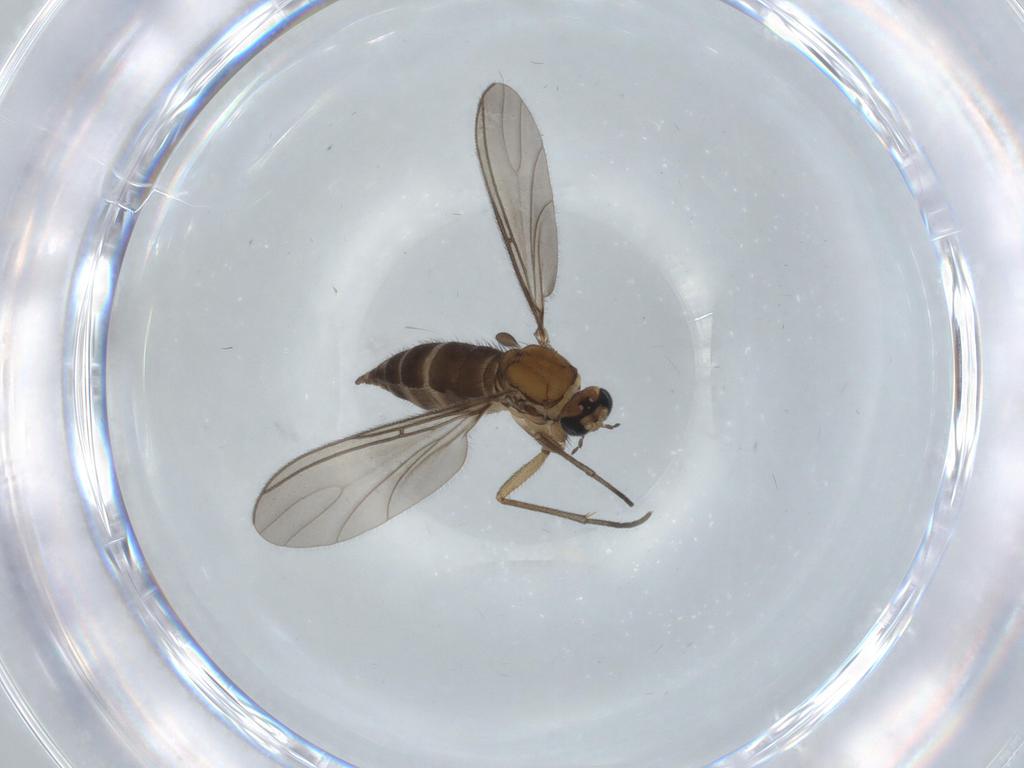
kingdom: Animalia
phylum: Arthropoda
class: Insecta
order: Diptera
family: Sciaridae
